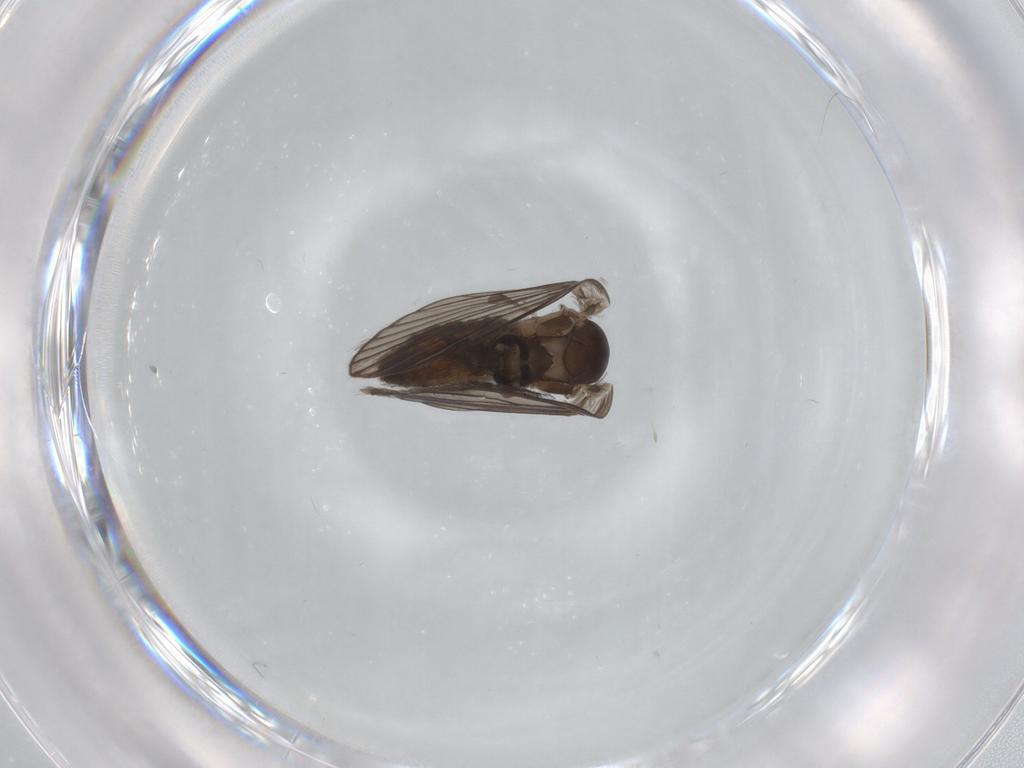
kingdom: Animalia
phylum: Arthropoda
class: Insecta
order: Diptera
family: Psychodidae
